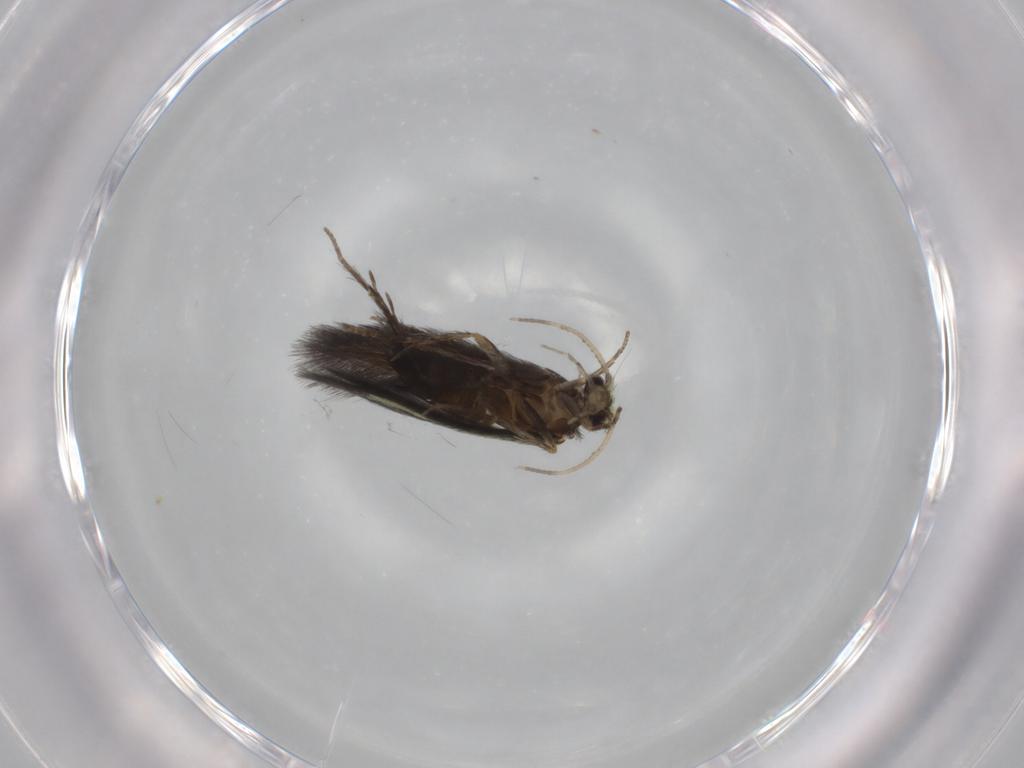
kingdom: Animalia
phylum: Arthropoda
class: Insecta
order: Trichoptera
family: Hydroptilidae
